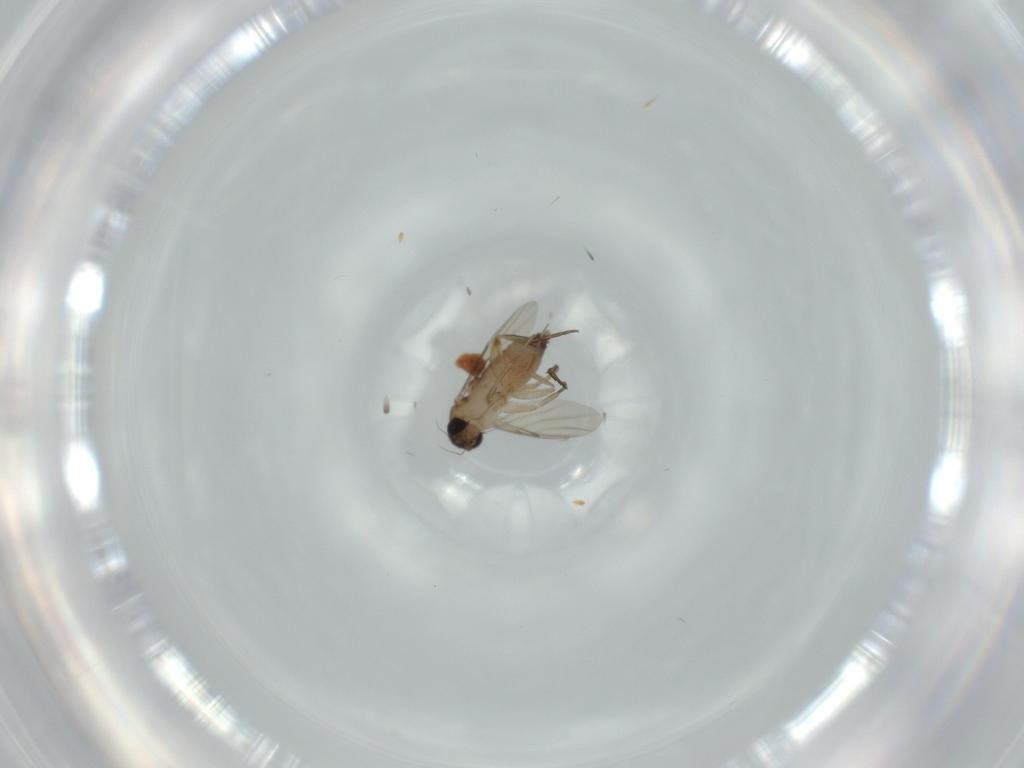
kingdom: Animalia
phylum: Arthropoda
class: Insecta
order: Diptera
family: Phoridae
